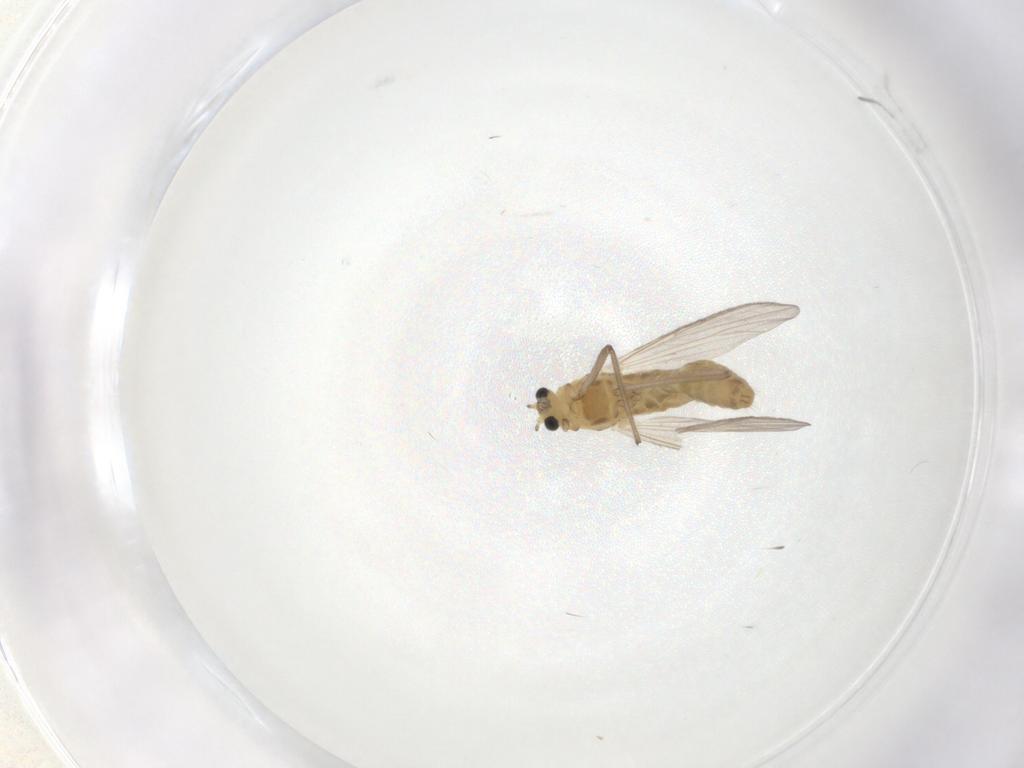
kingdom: Animalia
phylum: Arthropoda
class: Insecta
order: Diptera
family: Chironomidae
